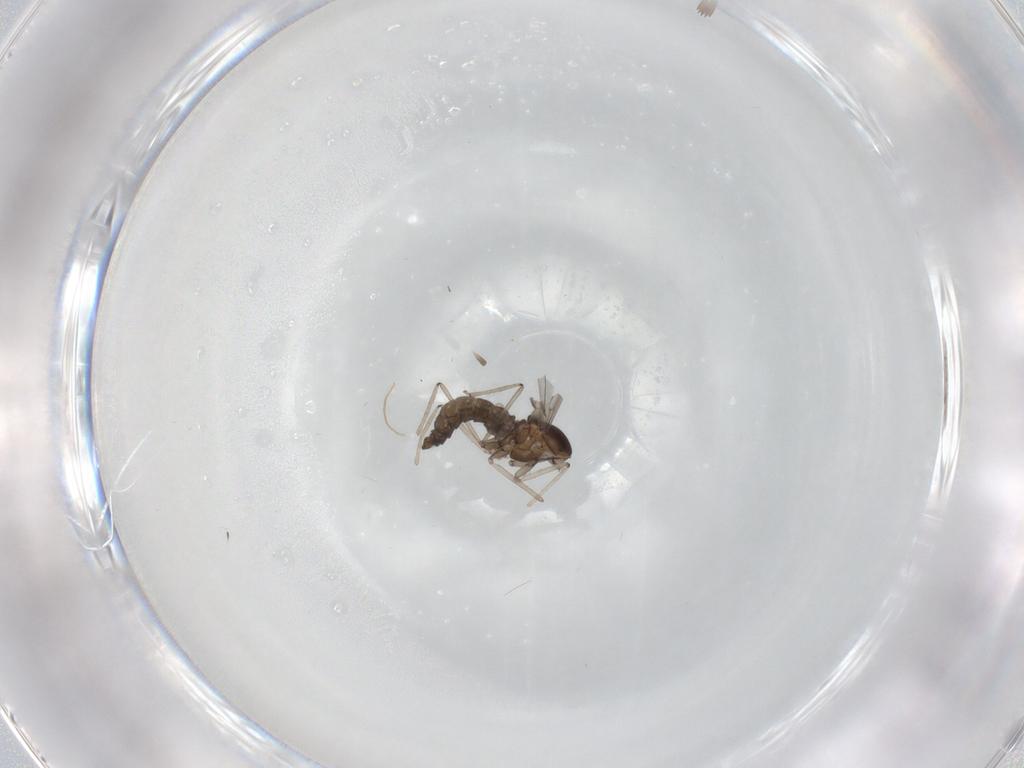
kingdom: Animalia
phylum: Arthropoda
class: Insecta
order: Diptera
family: Cecidomyiidae
